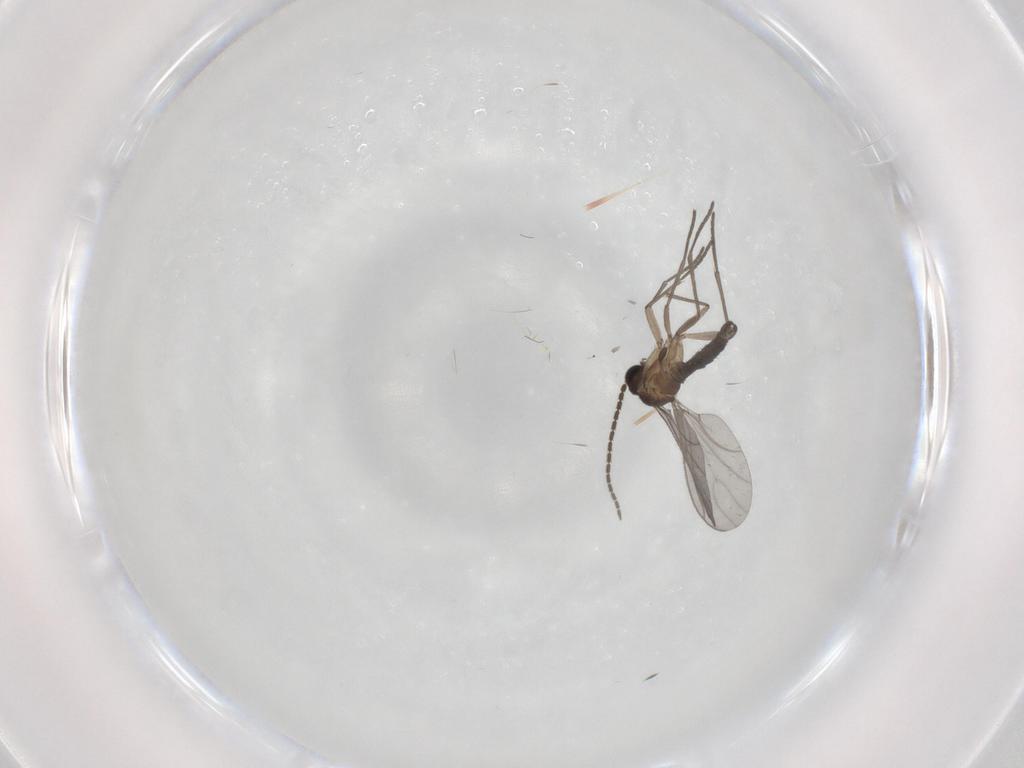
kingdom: Animalia
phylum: Arthropoda
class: Insecta
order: Diptera
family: Sciaridae
